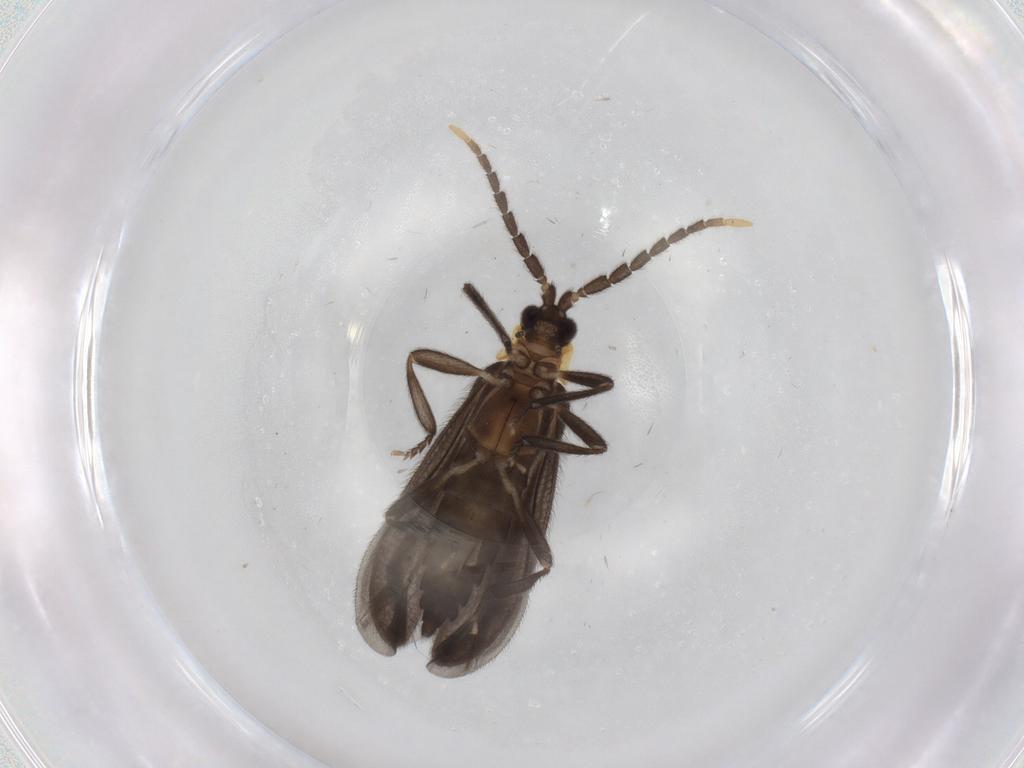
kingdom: Animalia
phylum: Arthropoda
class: Insecta
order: Coleoptera
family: Lycidae
